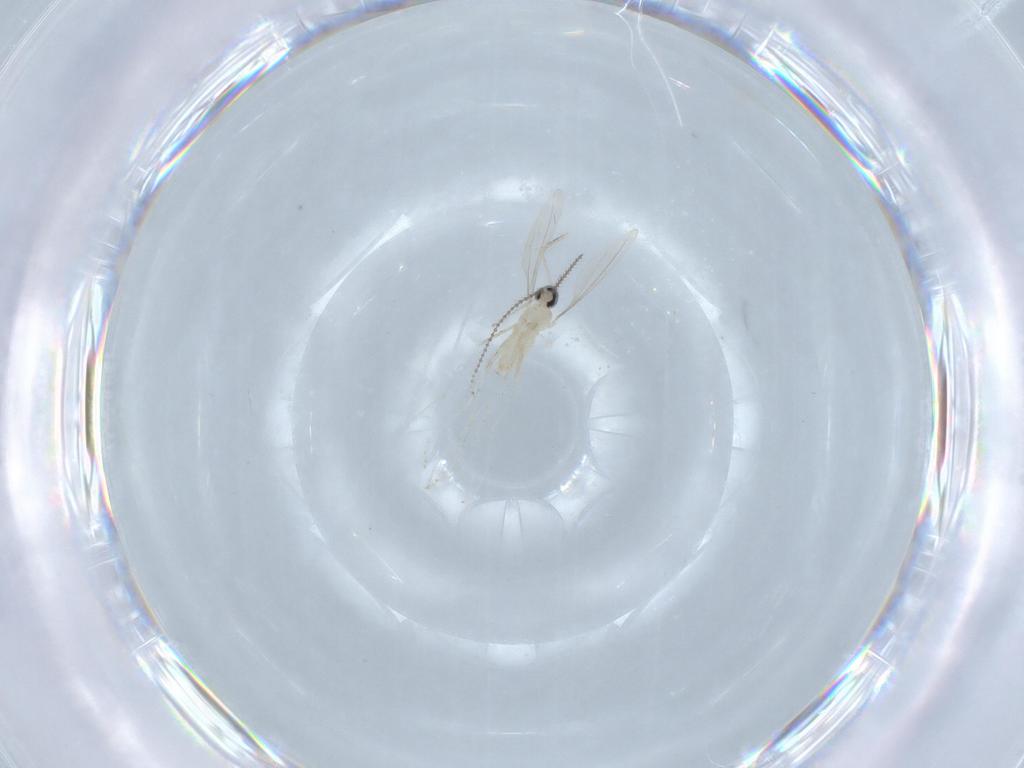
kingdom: Animalia
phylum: Arthropoda
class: Insecta
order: Diptera
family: Cecidomyiidae
